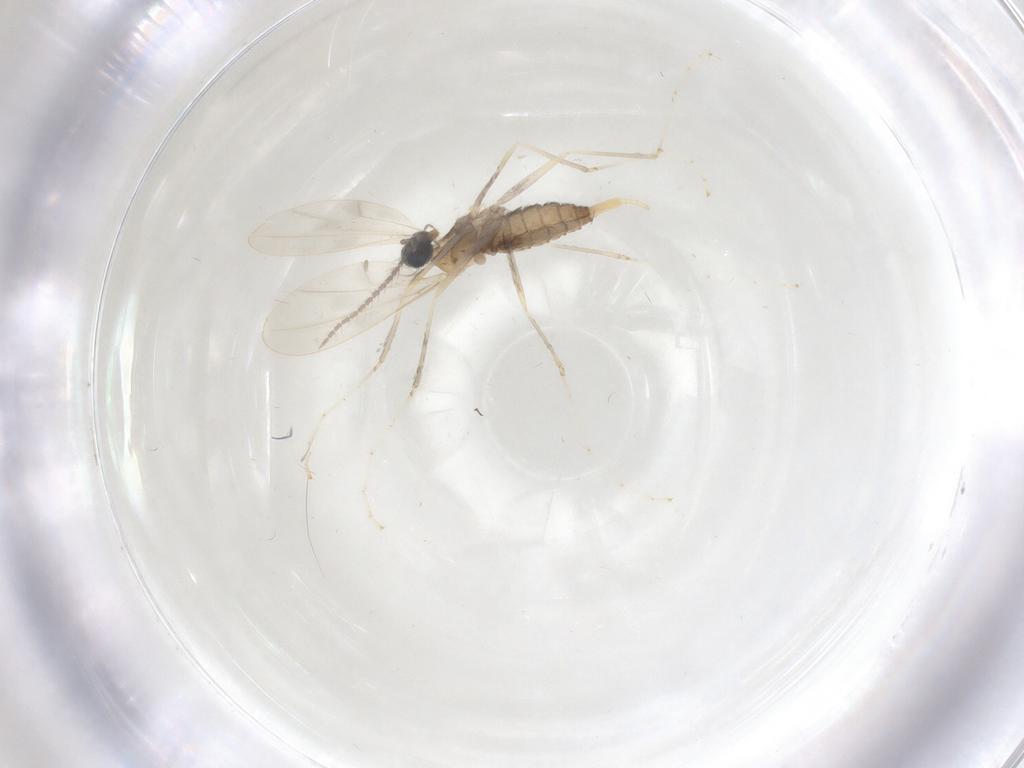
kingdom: Animalia
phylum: Arthropoda
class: Insecta
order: Diptera
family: Cecidomyiidae
